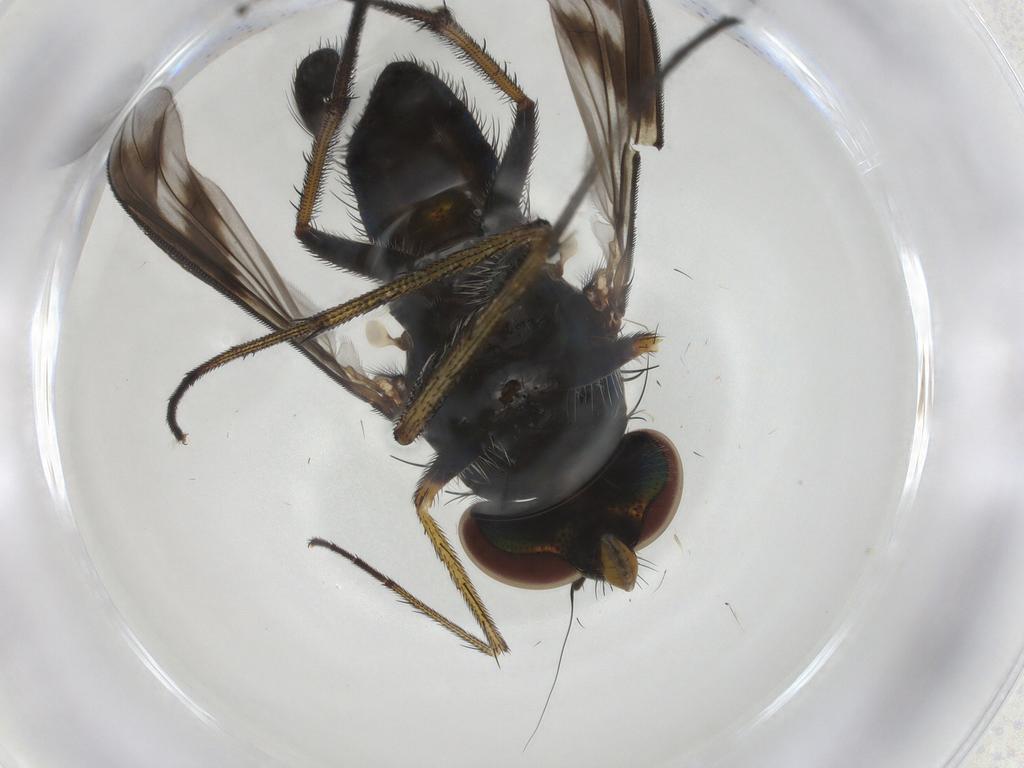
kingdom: Animalia
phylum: Arthropoda
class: Insecta
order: Diptera
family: Dolichopodidae
